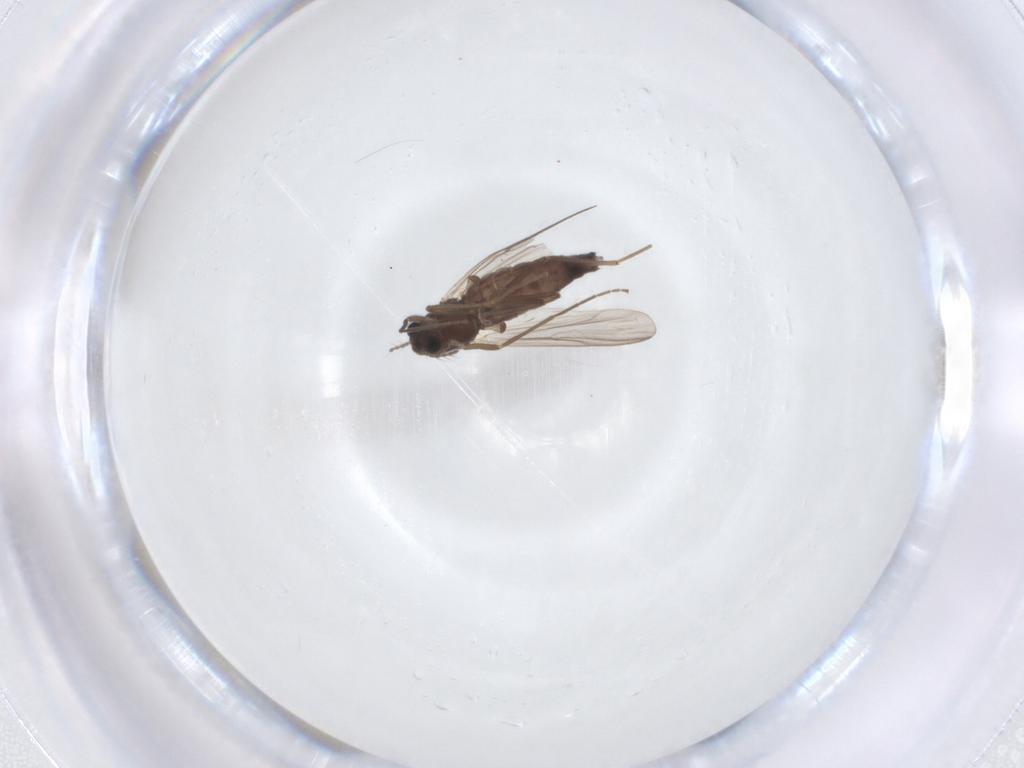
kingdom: Animalia
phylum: Arthropoda
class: Insecta
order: Diptera
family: Chironomidae
